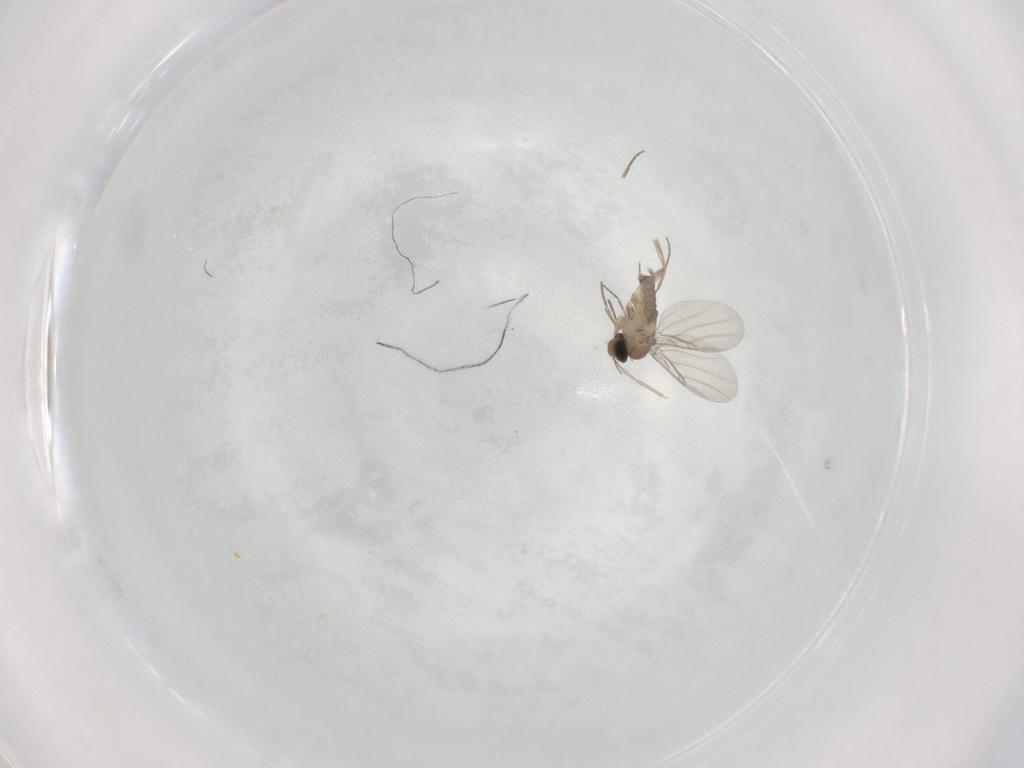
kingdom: Animalia
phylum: Arthropoda
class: Insecta
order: Diptera
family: Phoridae
